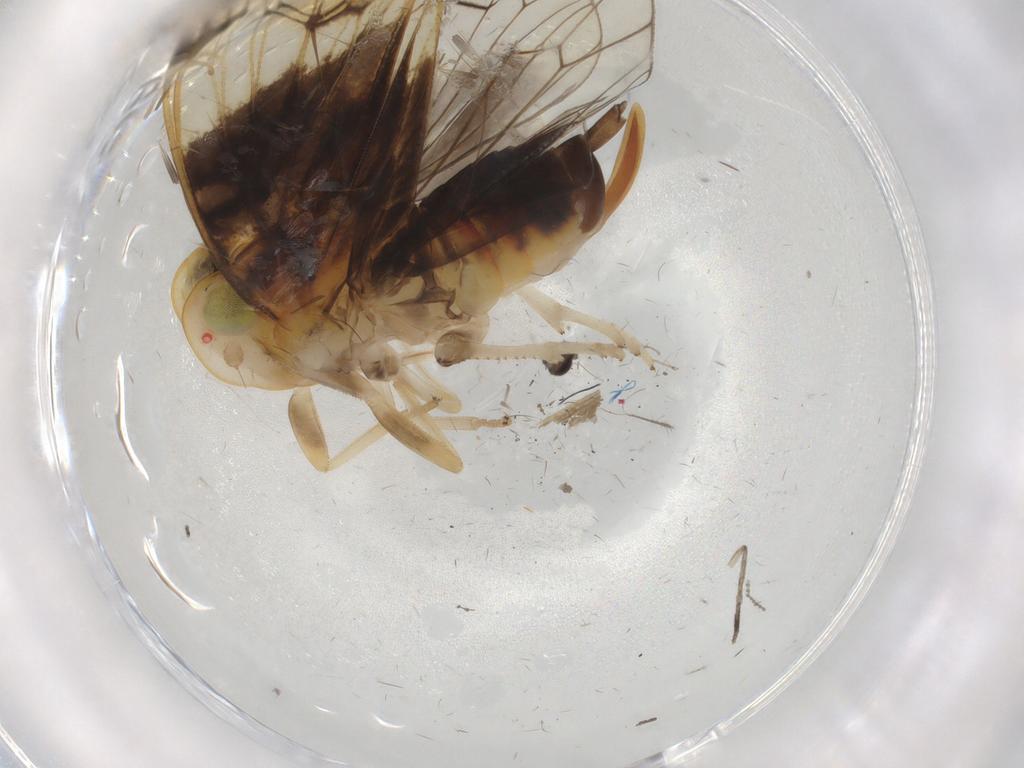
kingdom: Animalia
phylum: Arthropoda
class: Insecta
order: Hemiptera
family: Cixiidae
